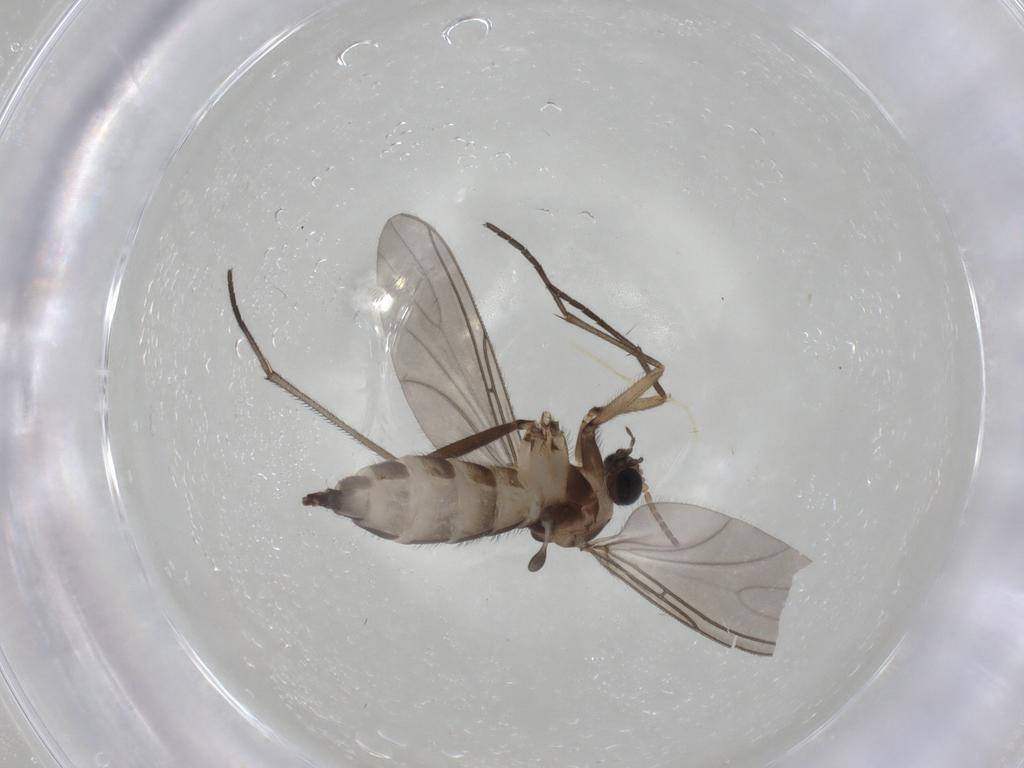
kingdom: Animalia
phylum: Arthropoda
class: Insecta
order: Diptera
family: Sciaridae
